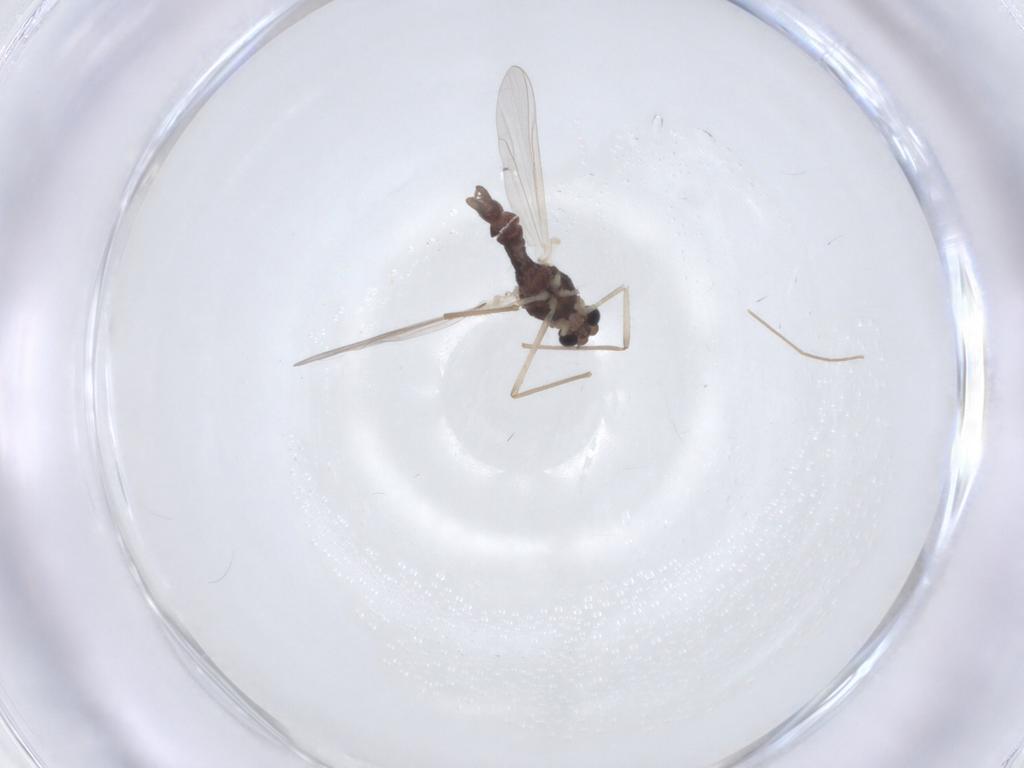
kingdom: Animalia
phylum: Arthropoda
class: Insecta
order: Diptera
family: Chironomidae
